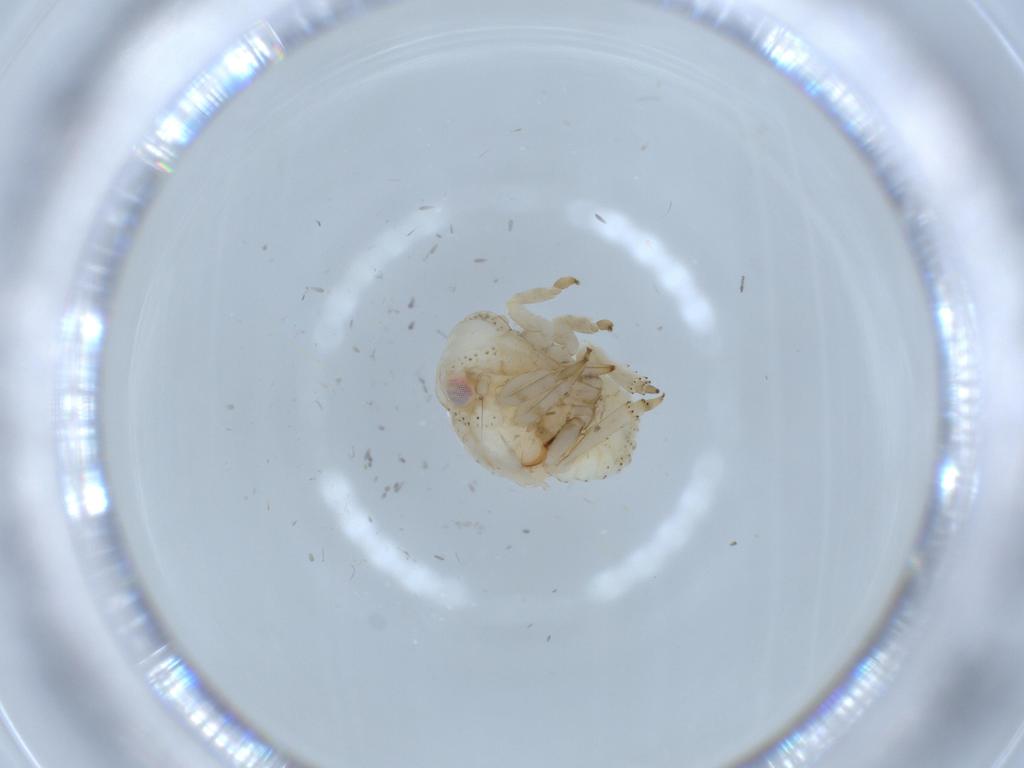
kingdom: Animalia
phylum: Arthropoda
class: Insecta
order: Hemiptera
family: Acanaloniidae
